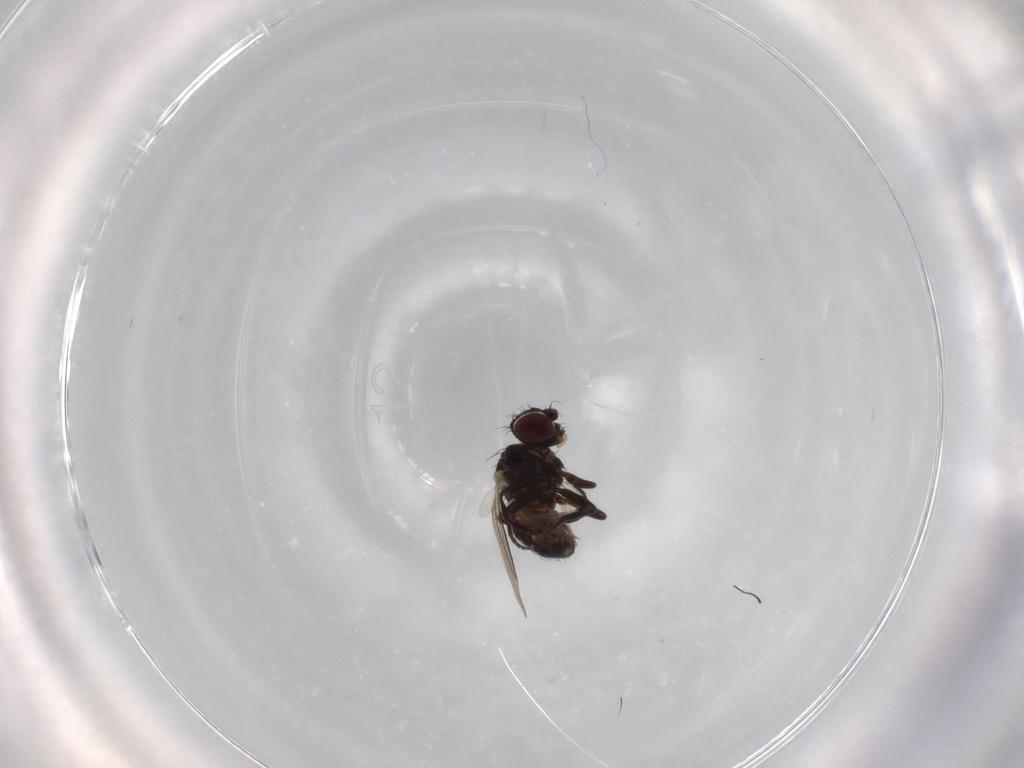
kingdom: Animalia
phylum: Arthropoda
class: Insecta
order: Diptera
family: Agromyzidae
